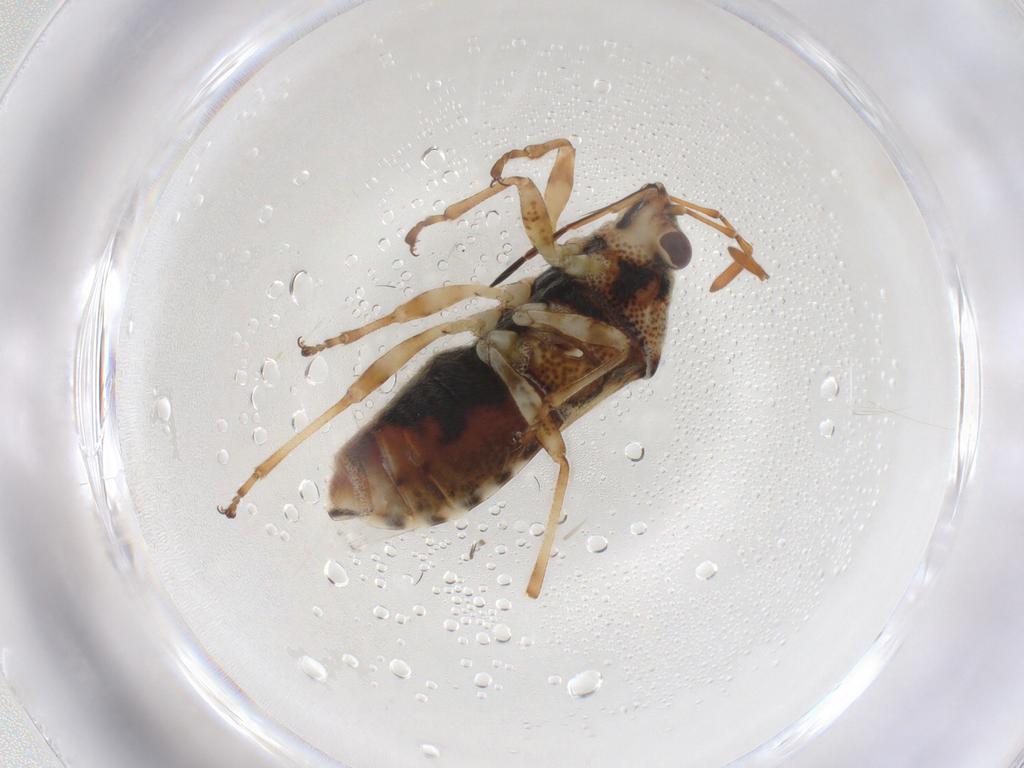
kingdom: Animalia
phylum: Arthropoda
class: Insecta
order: Hemiptera
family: Lygaeidae
